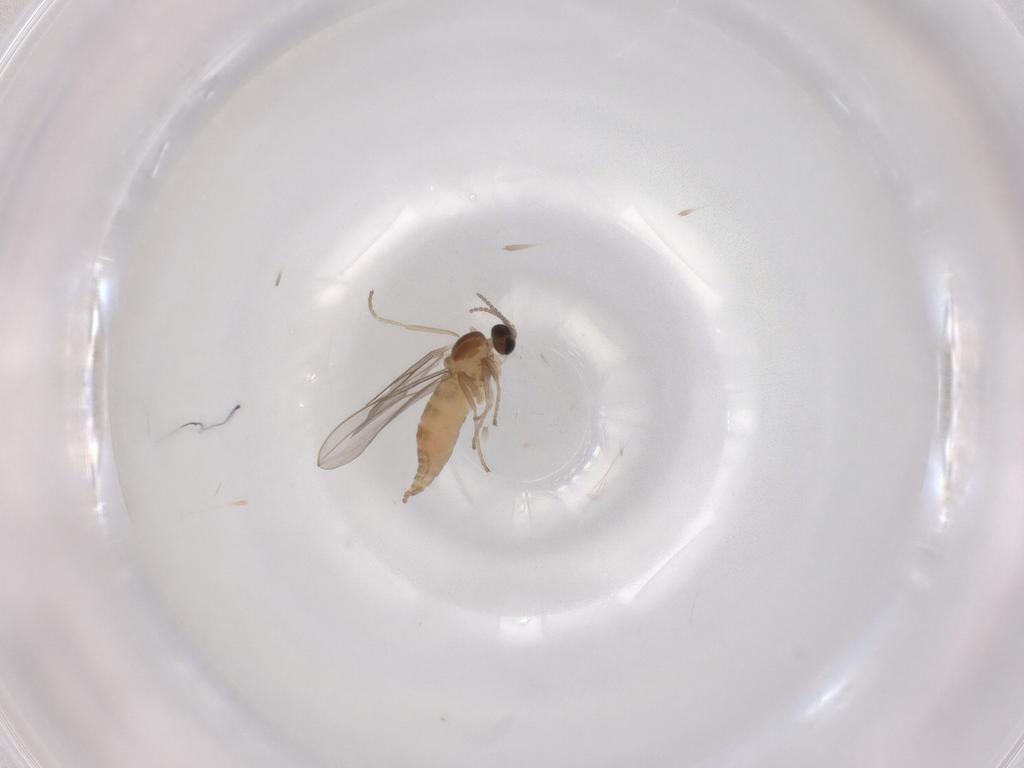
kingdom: Animalia
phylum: Arthropoda
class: Insecta
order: Diptera
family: Cecidomyiidae
